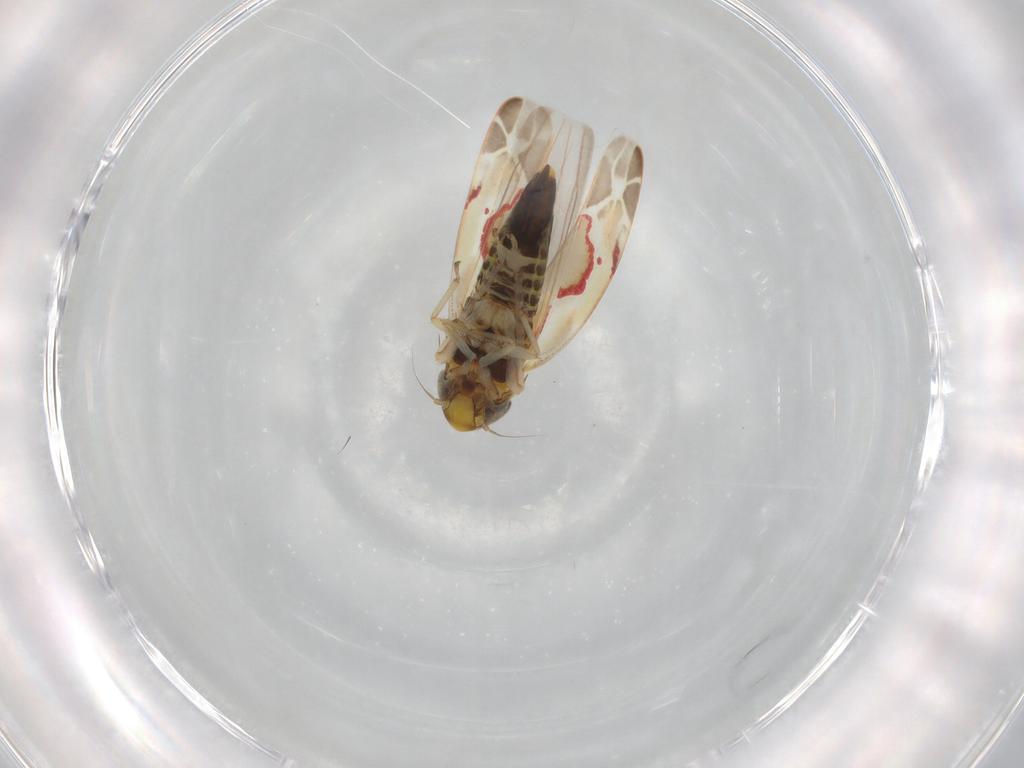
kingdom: Animalia
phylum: Arthropoda
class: Insecta
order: Hemiptera
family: Cicadellidae
